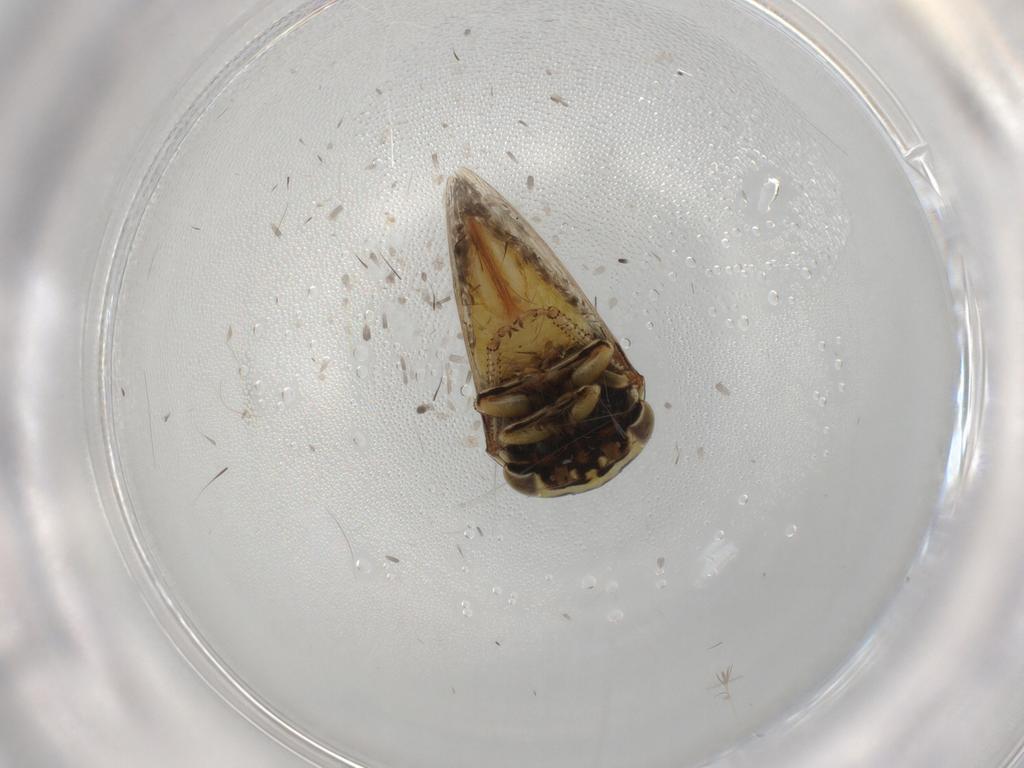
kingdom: Animalia
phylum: Arthropoda
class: Insecta
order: Hemiptera
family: Membracidae
